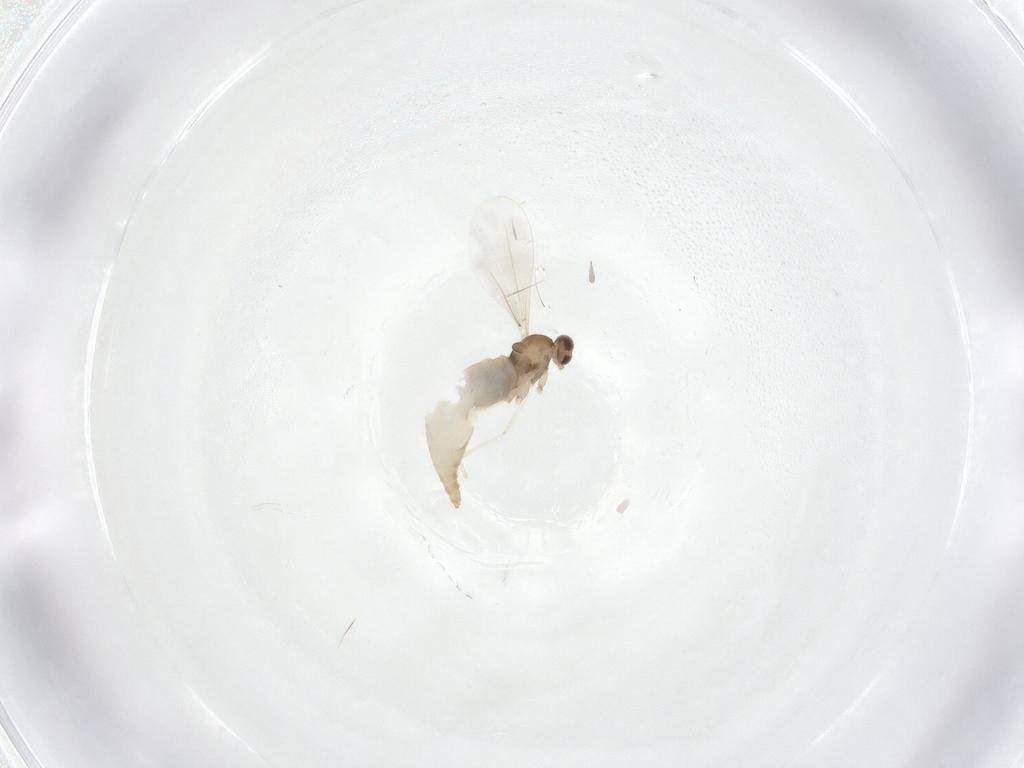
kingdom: Animalia
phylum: Arthropoda
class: Insecta
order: Diptera
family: Cecidomyiidae
